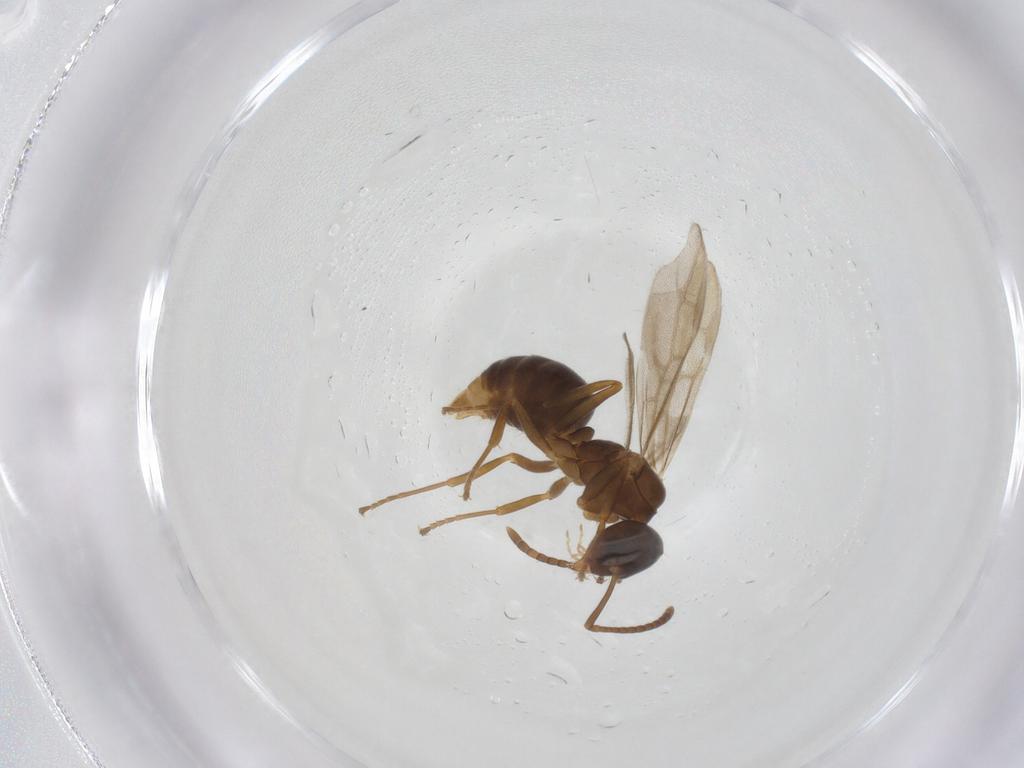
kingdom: Animalia
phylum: Arthropoda
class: Insecta
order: Hymenoptera
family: Formicidae
